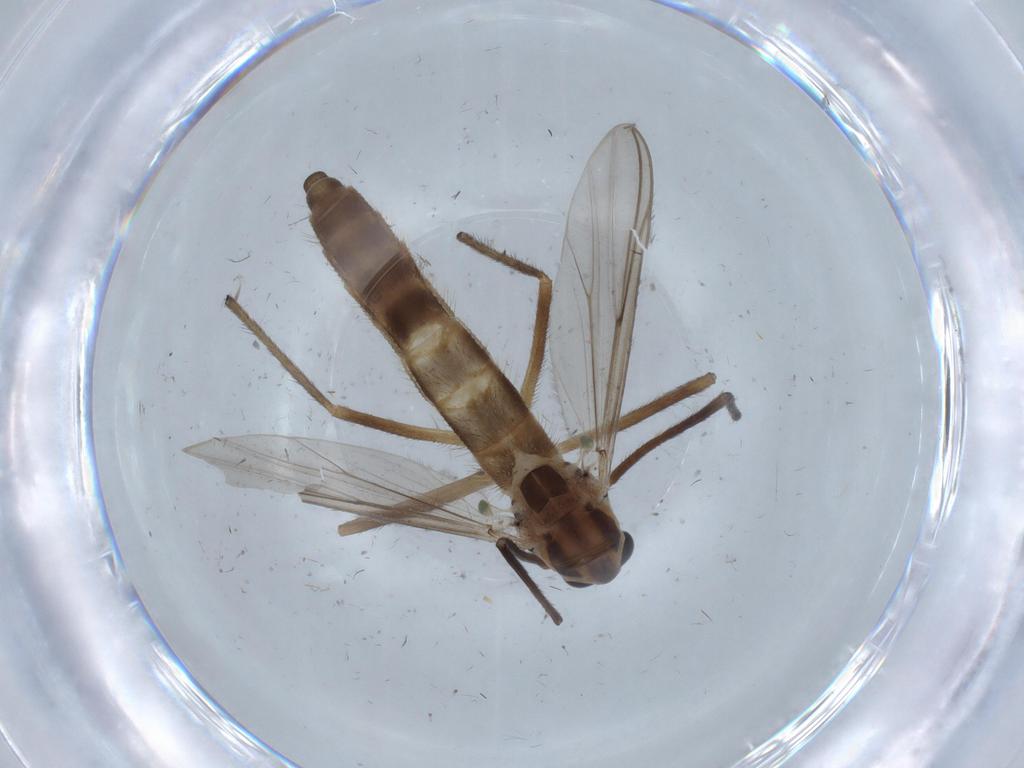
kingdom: Animalia
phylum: Arthropoda
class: Insecta
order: Diptera
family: Chironomidae
